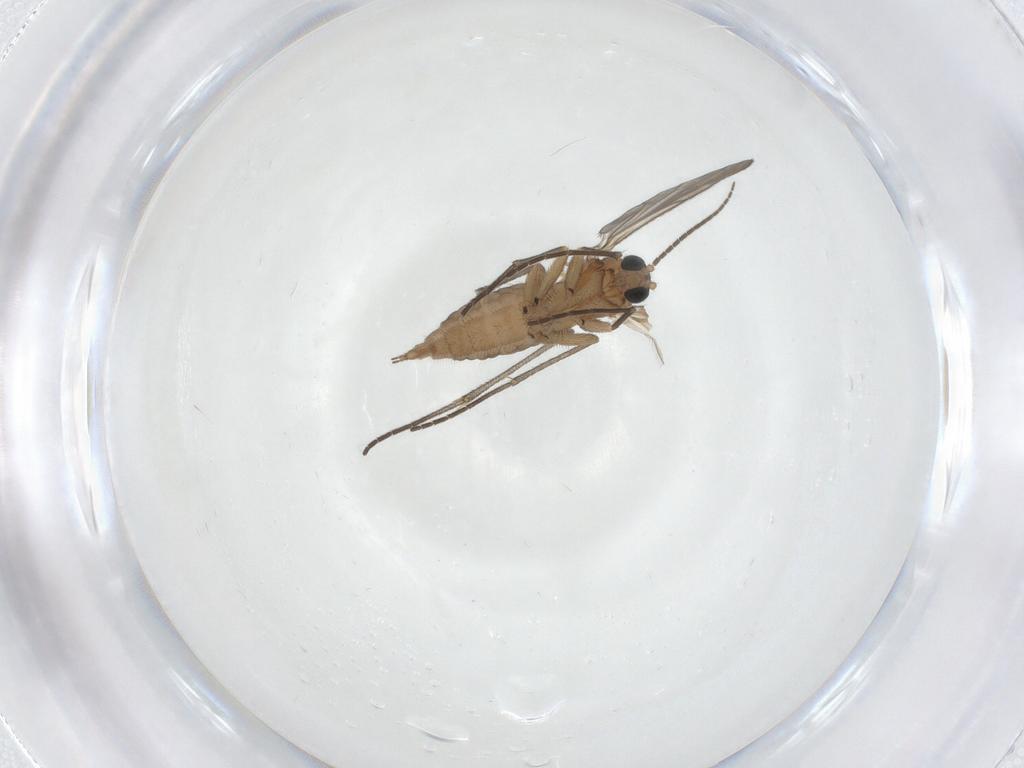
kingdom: Animalia
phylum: Arthropoda
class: Insecta
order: Diptera
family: Sciaridae
